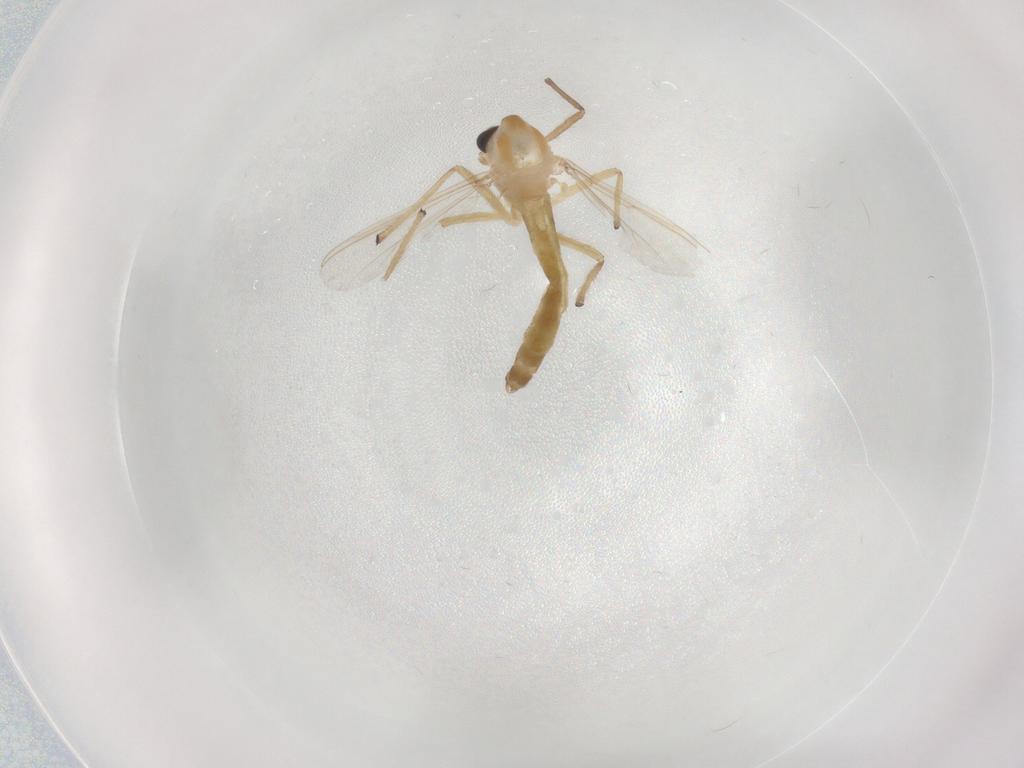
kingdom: Animalia
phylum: Arthropoda
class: Insecta
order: Diptera
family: Chironomidae
